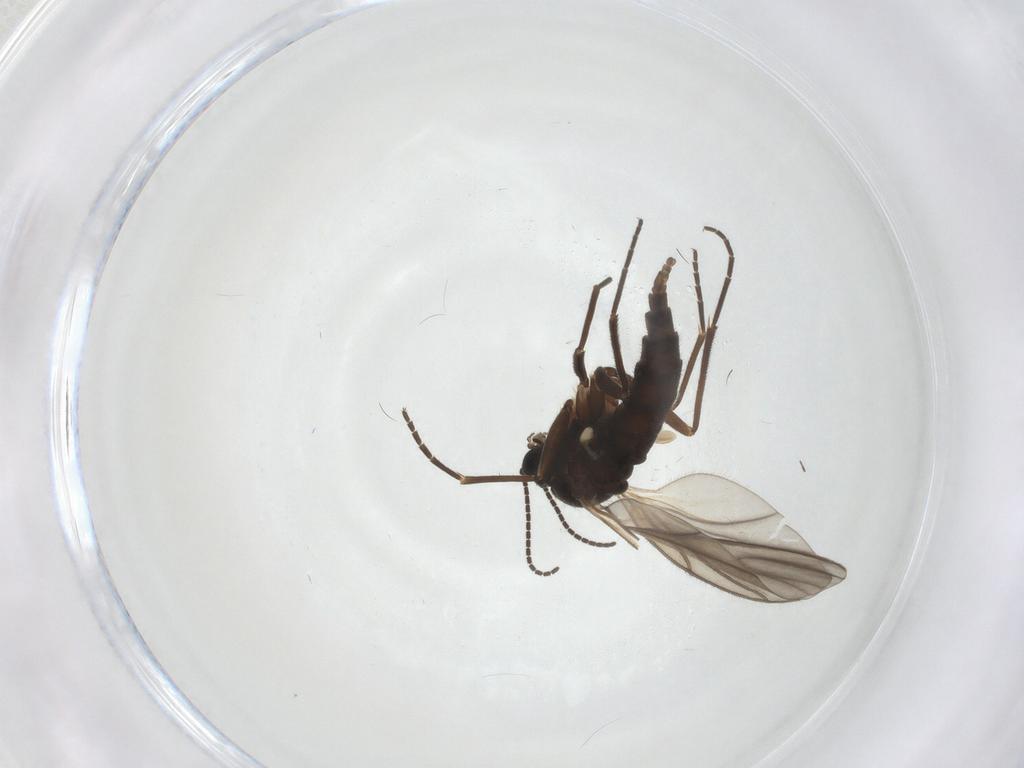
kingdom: Animalia
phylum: Arthropoda
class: Insecta
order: Diptera
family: Sciaridae
